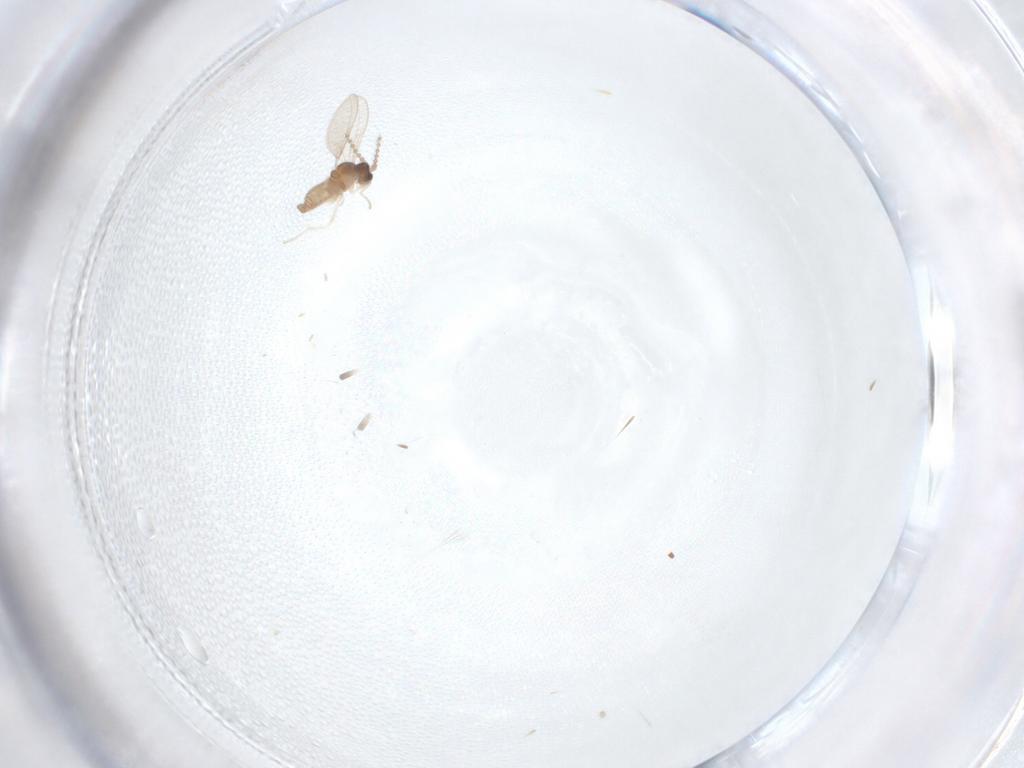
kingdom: Animalia
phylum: Arthropoda
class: Insecta
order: Diptera
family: Cecidomyiidae
